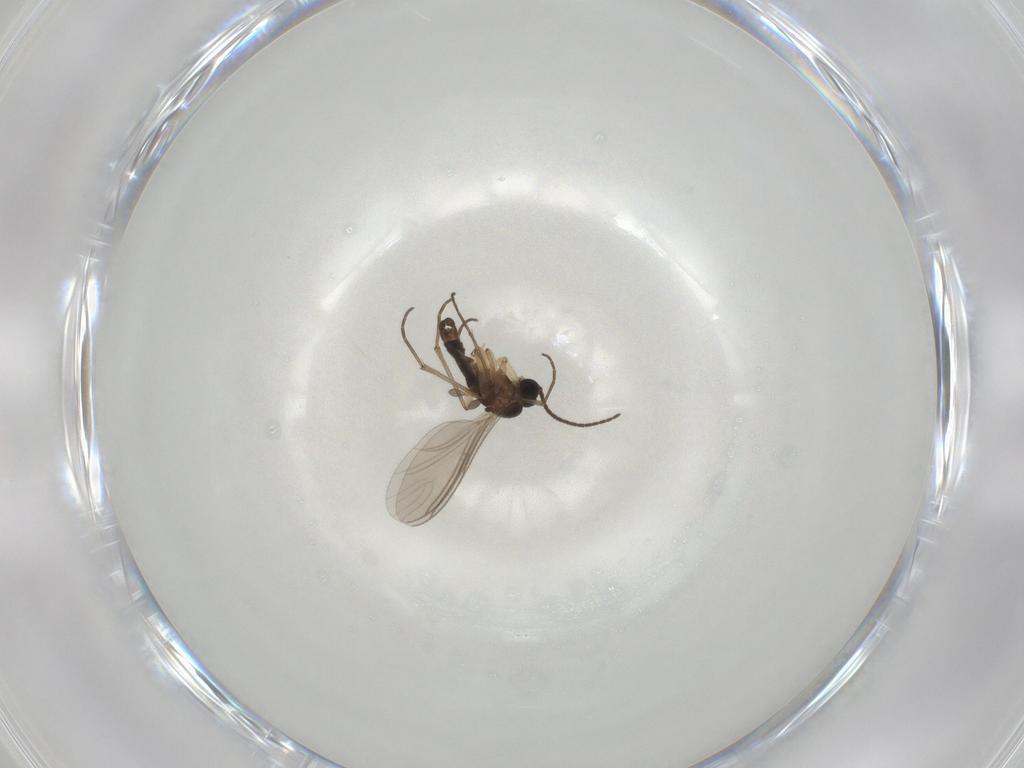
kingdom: Animalia
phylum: Arthropoda
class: Insecta
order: Diptera
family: Sciaridae
